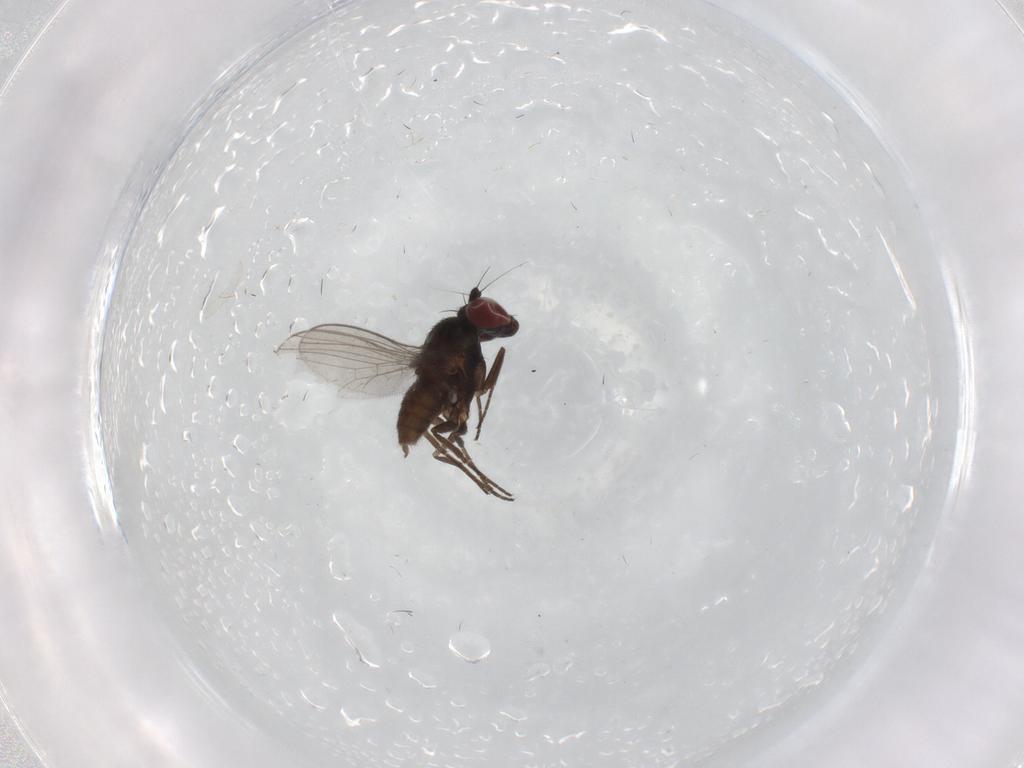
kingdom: Animalia
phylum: Arthropoda
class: Insecta
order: Diptera
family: Dolichopodidae
